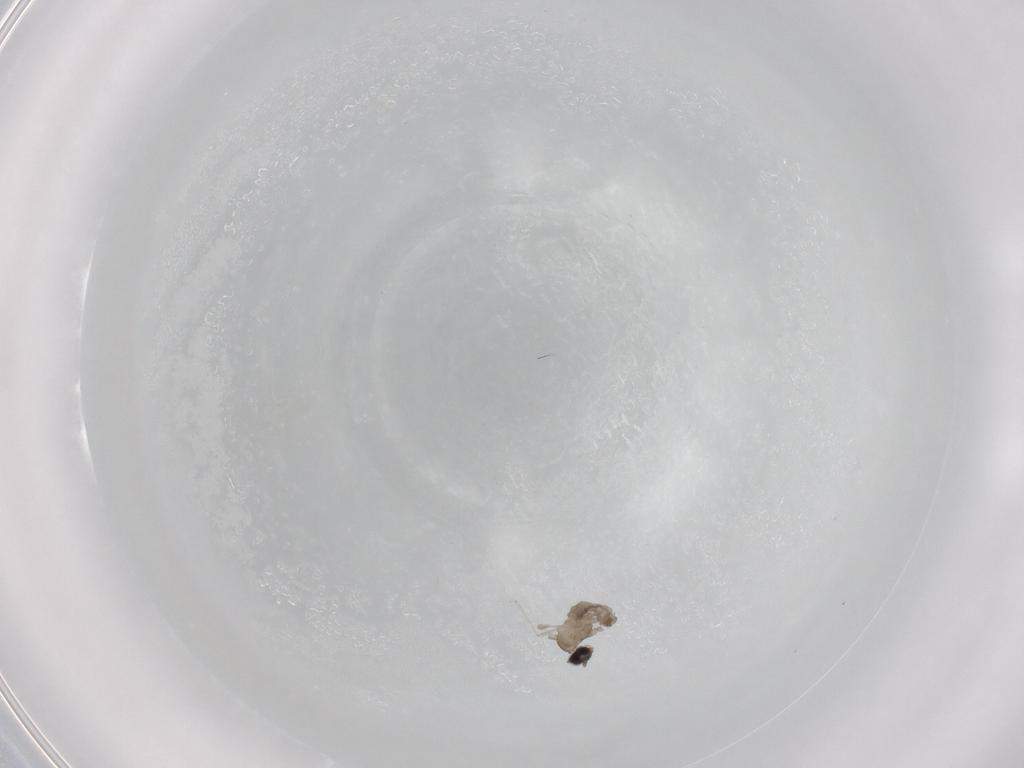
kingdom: Animalia
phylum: Arthropoda
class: Insecta
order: Diptera
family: Cecidomyiidae
